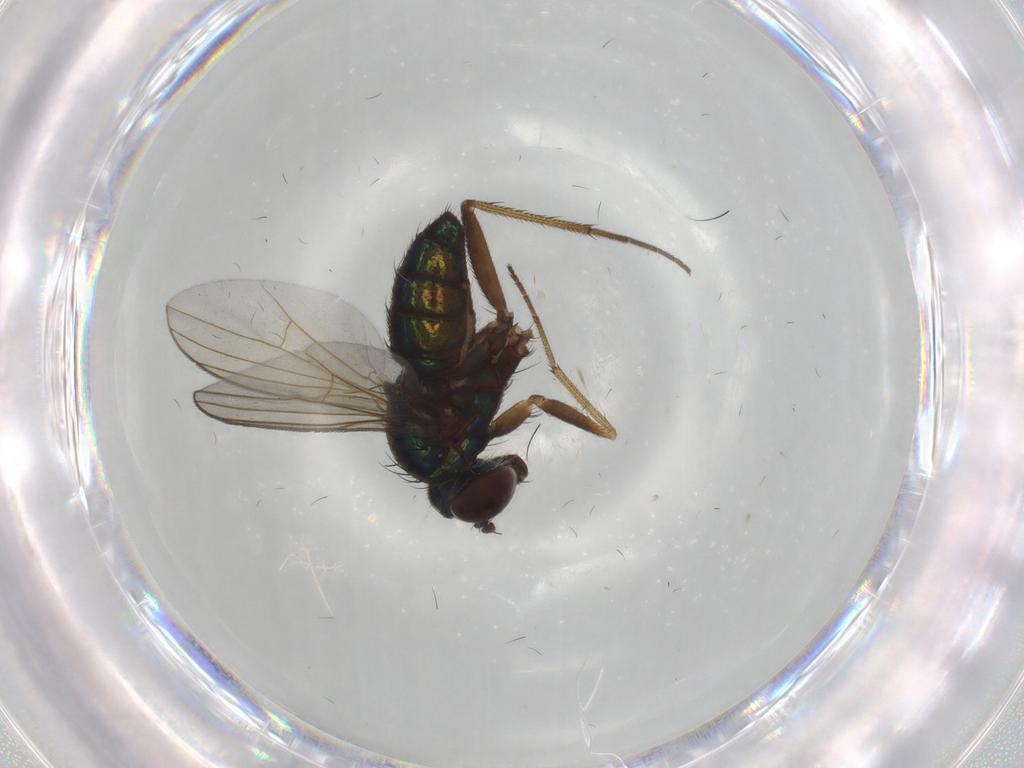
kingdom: Animalia
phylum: Arthropoda
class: Insecta
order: Diptera
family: Dolichopodidae
